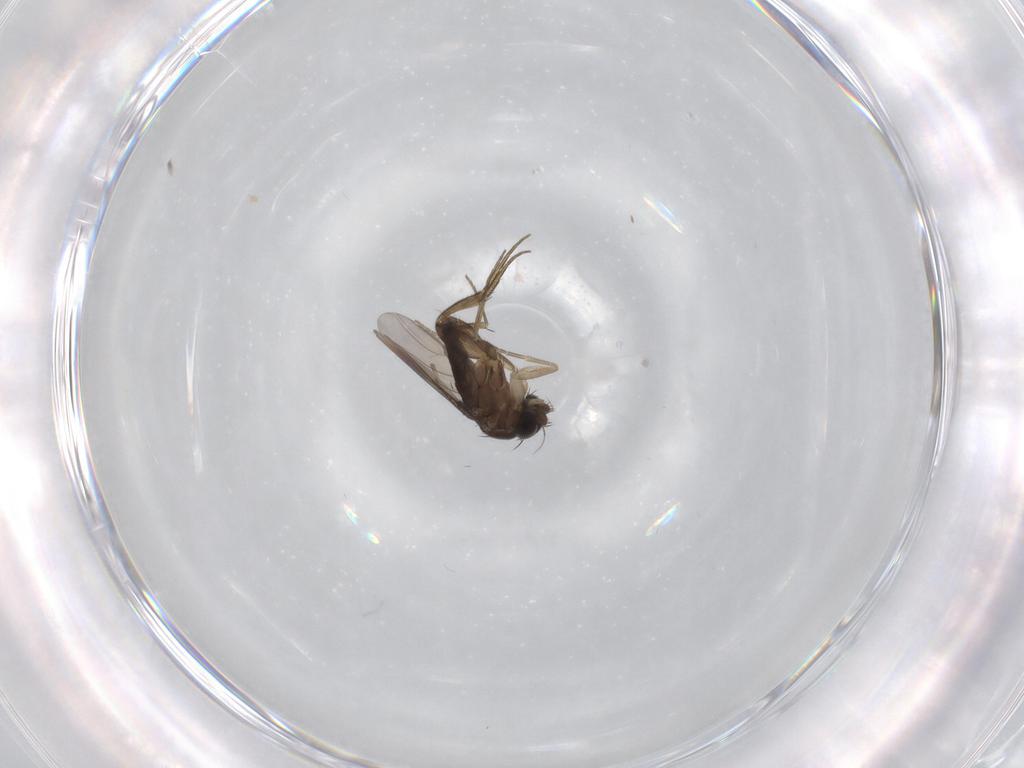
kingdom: Animalia
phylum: Arthropoda
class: Insecta
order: Diptera
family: Phoridae
